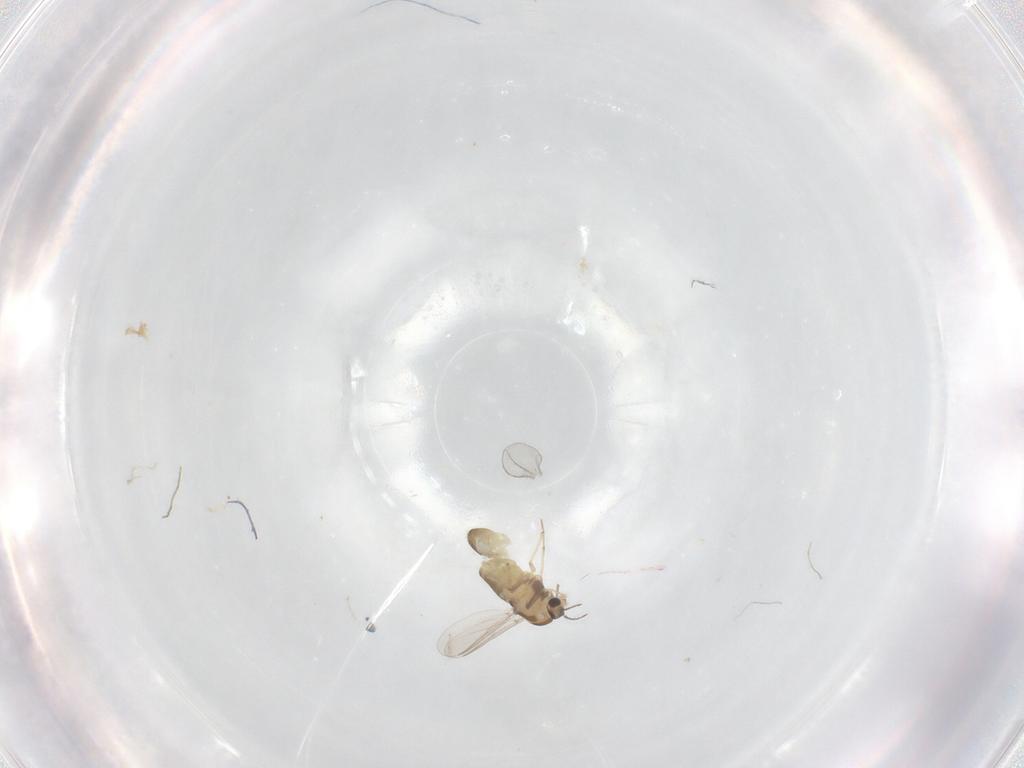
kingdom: Animalia
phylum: Arthropoda
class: Insecta
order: Diptera
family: Chironomidae
